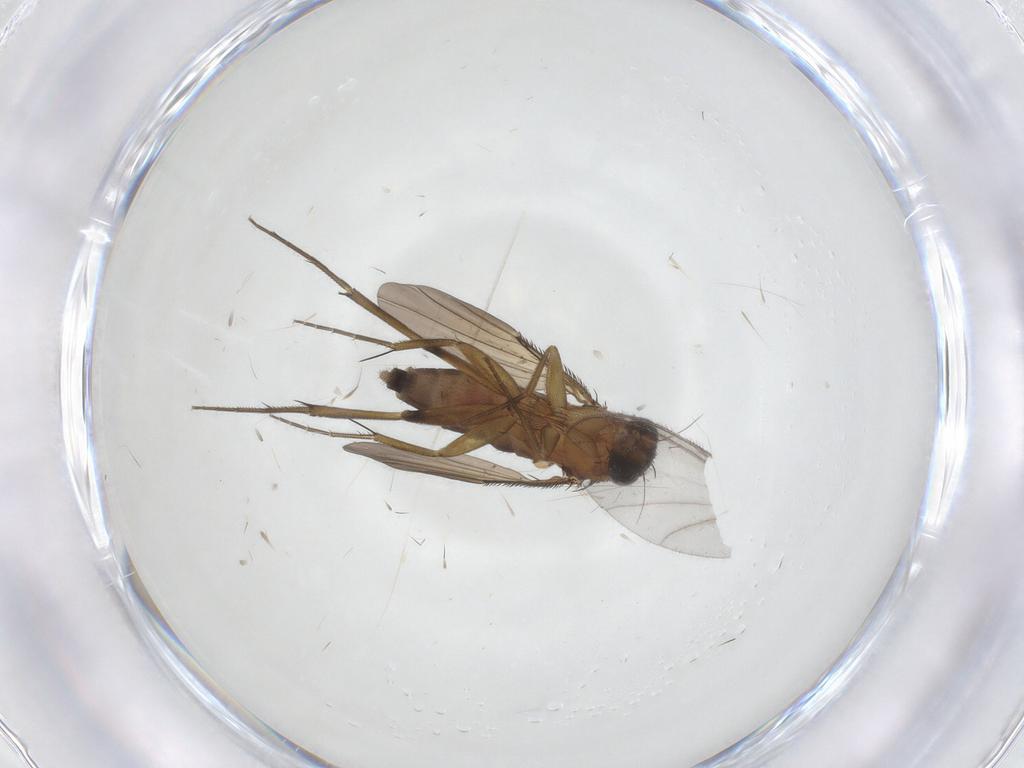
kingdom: Animalia
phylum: Arthropoda
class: Insecta
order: Diptera
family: Phoridae
